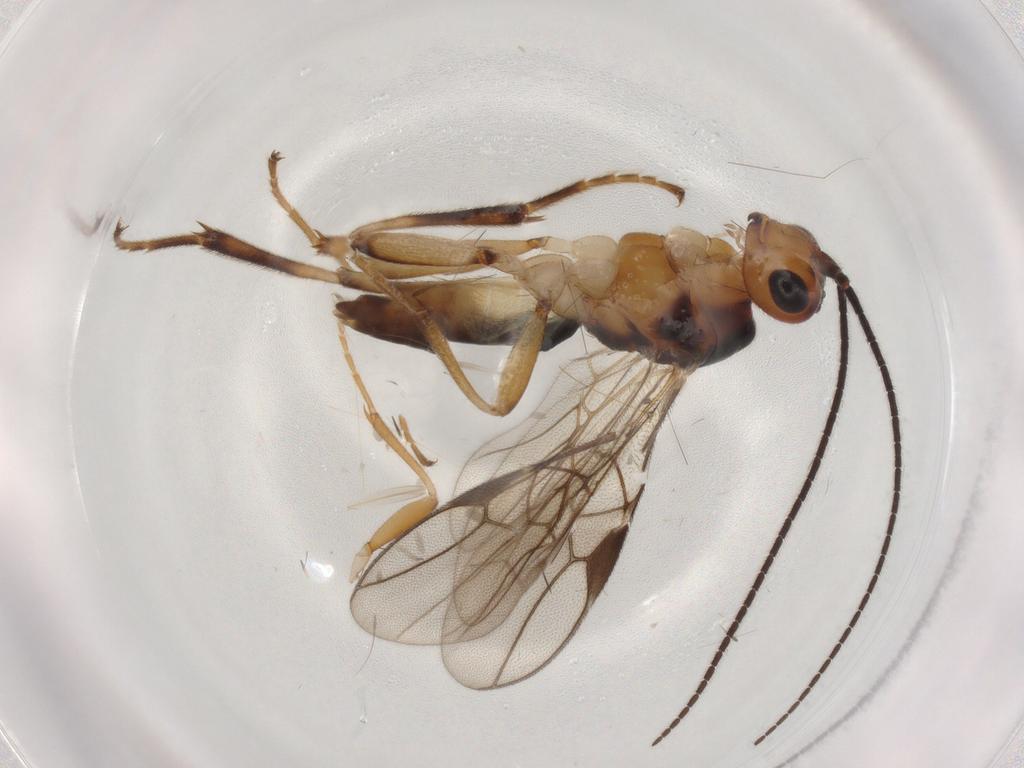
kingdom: Animalia
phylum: Arthropoda
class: Insecta
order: Hymenoptera
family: Braconidae
